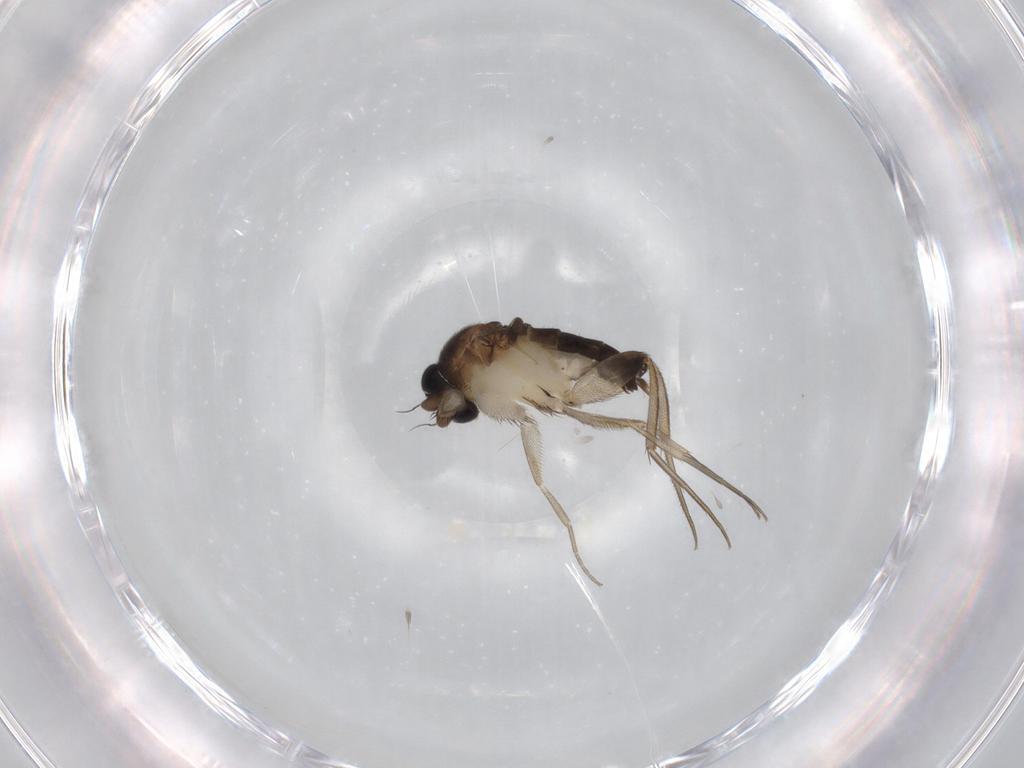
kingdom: Animalia
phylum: Arthropoda
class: Insecta
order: Diptera
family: Phoridae
